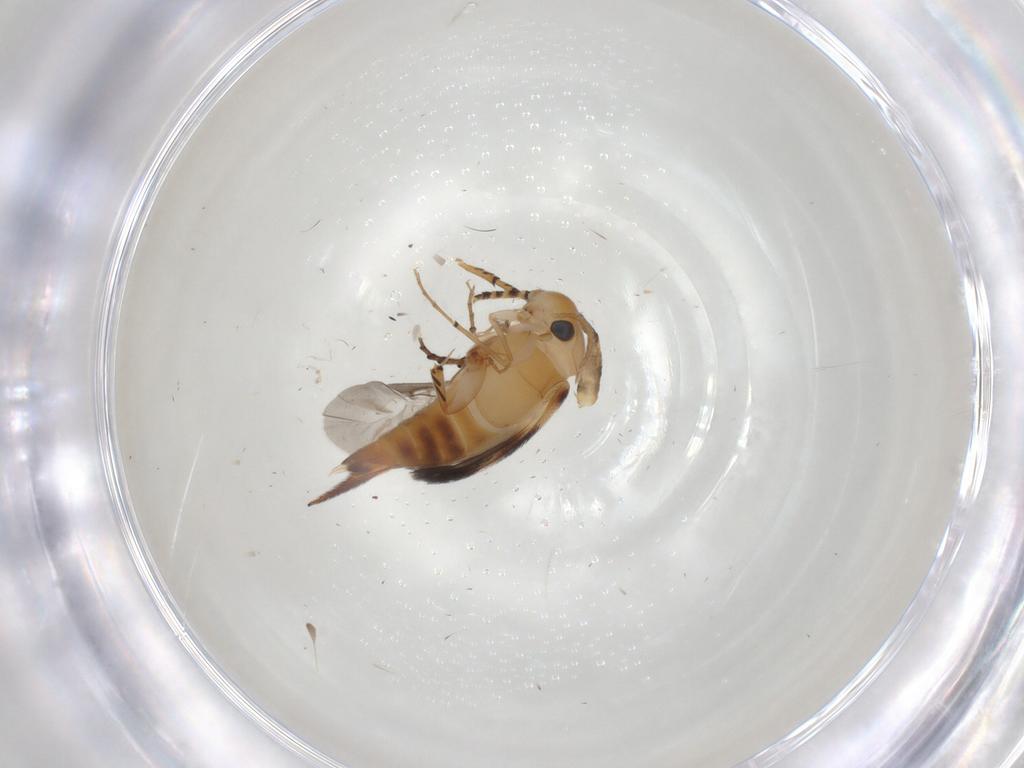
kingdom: Animalia
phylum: Arthropoda
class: Insecta
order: Coleoptera
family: Mordellidae
